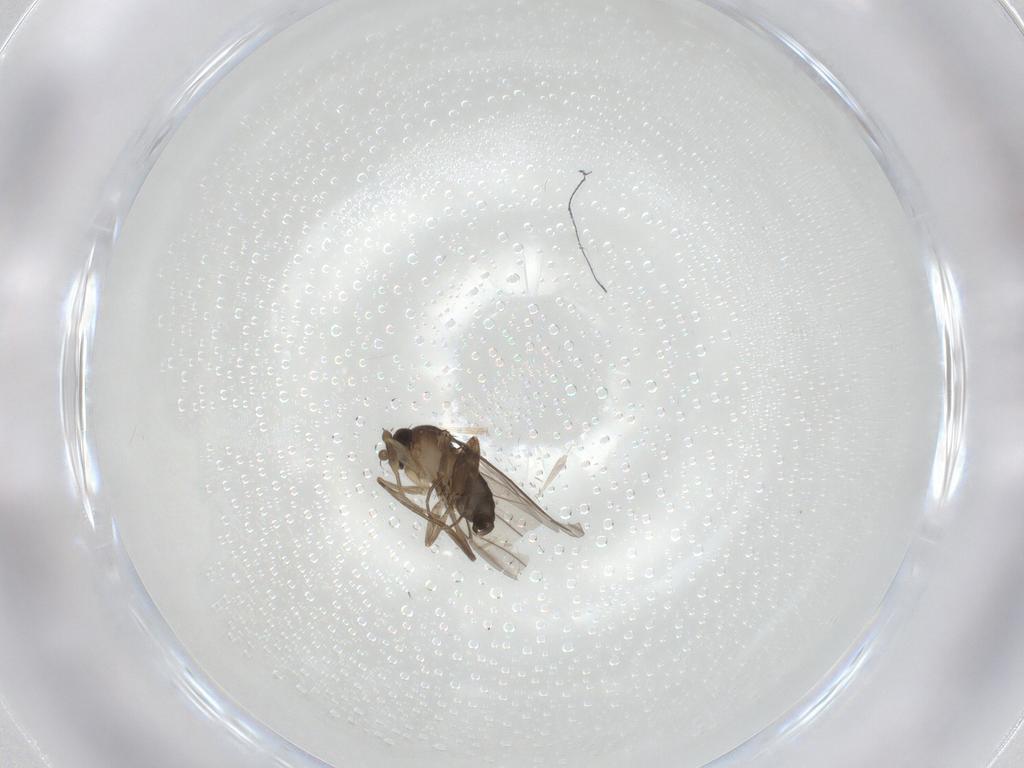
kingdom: Animalia
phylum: Arthropoda
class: Insecta
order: Diptera
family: Phoridae
